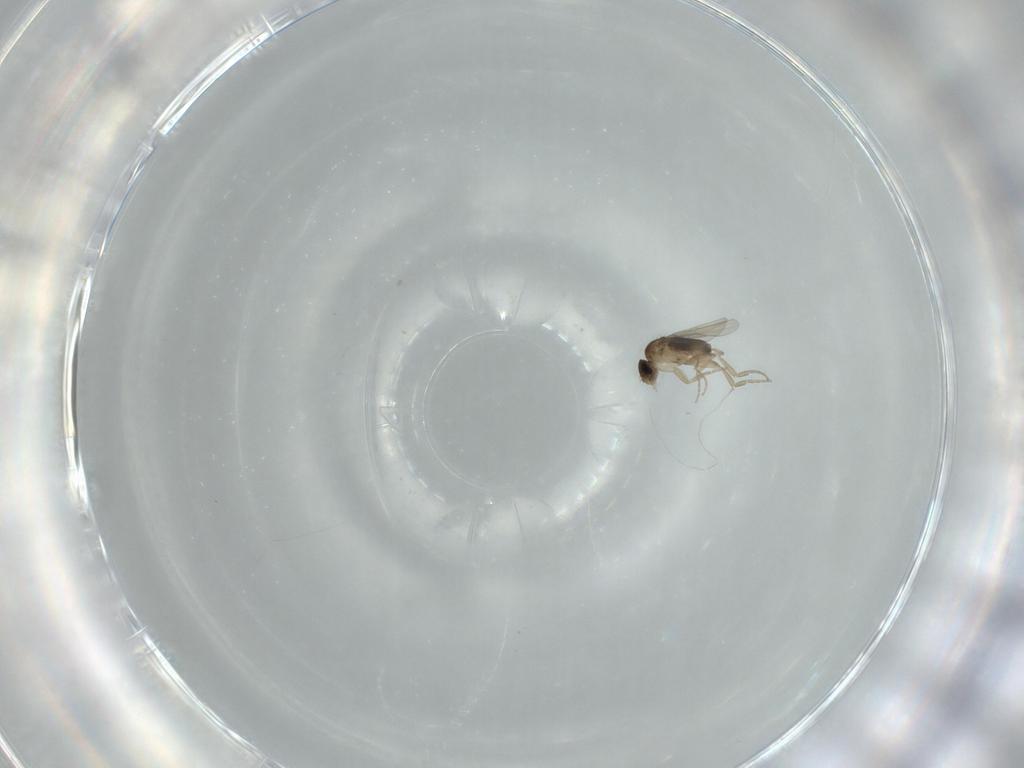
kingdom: Animalia
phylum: Arthropoda
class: Insecta
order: Diptera
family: Phoridae
